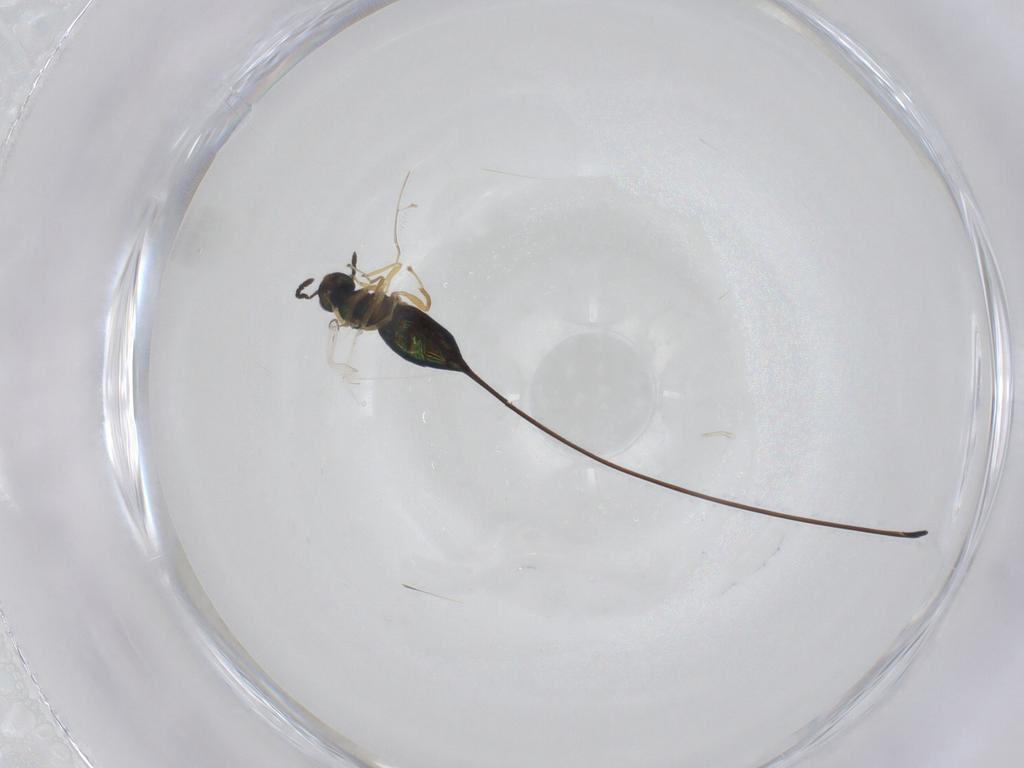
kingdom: Animalia
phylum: Arthropoda
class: Insecta
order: Hymenoptera
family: Pteromalidae
